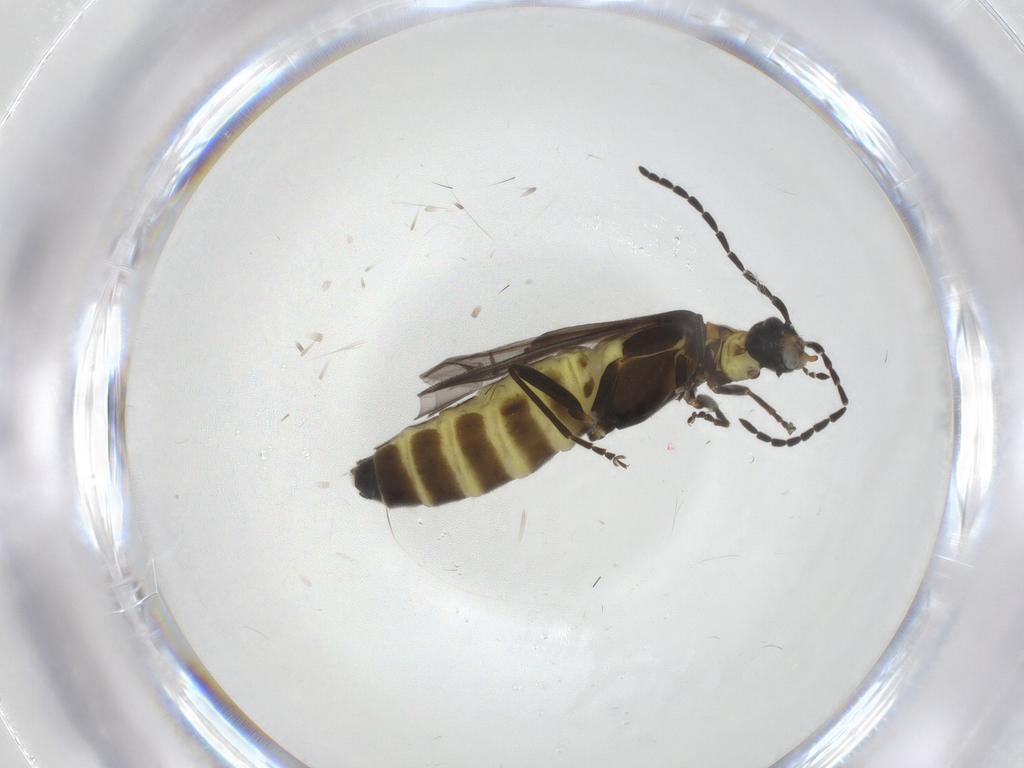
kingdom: Animalia
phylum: Arthropoda
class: Insecta
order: Coleoptera
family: Cantharidae
